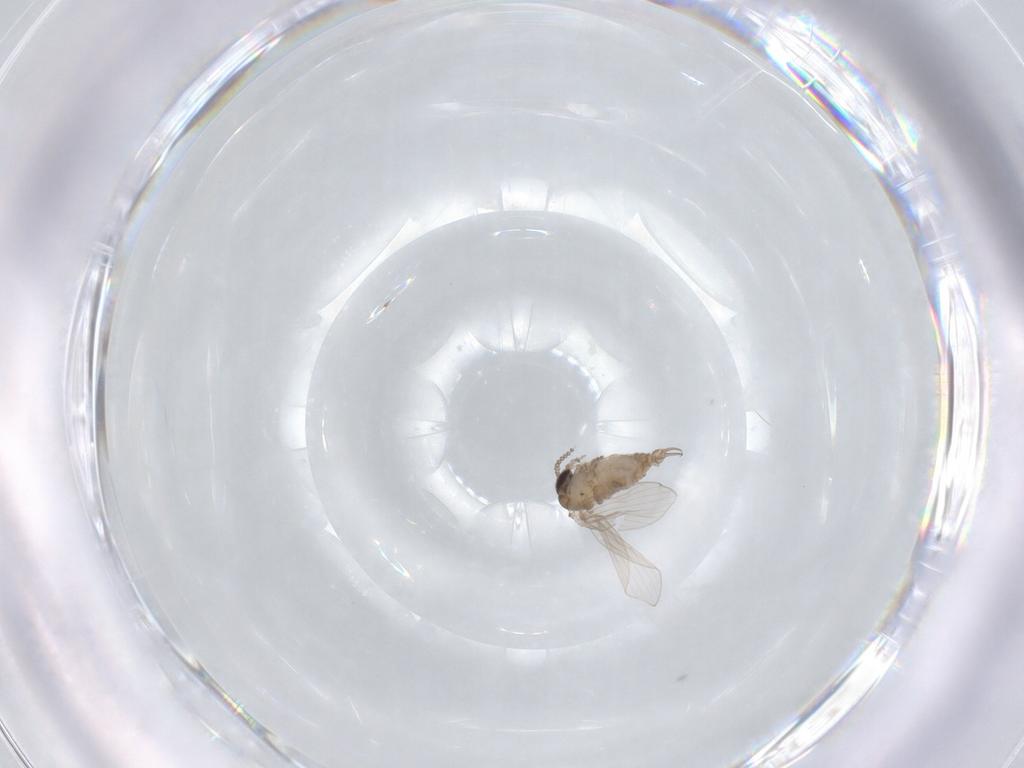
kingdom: Animalia
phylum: Arthropoda
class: Insecta
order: Diptera
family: Psychodidae
